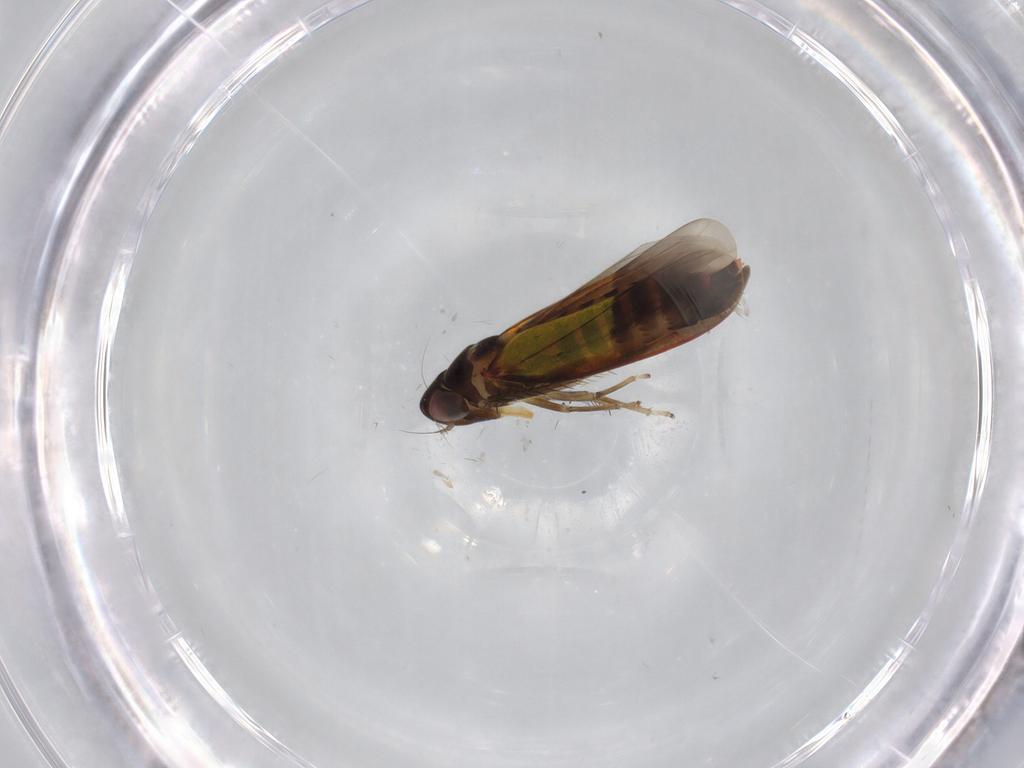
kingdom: Animalia
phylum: Arthropoda
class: Insecta
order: Hemiptera
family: Cicadellidae
